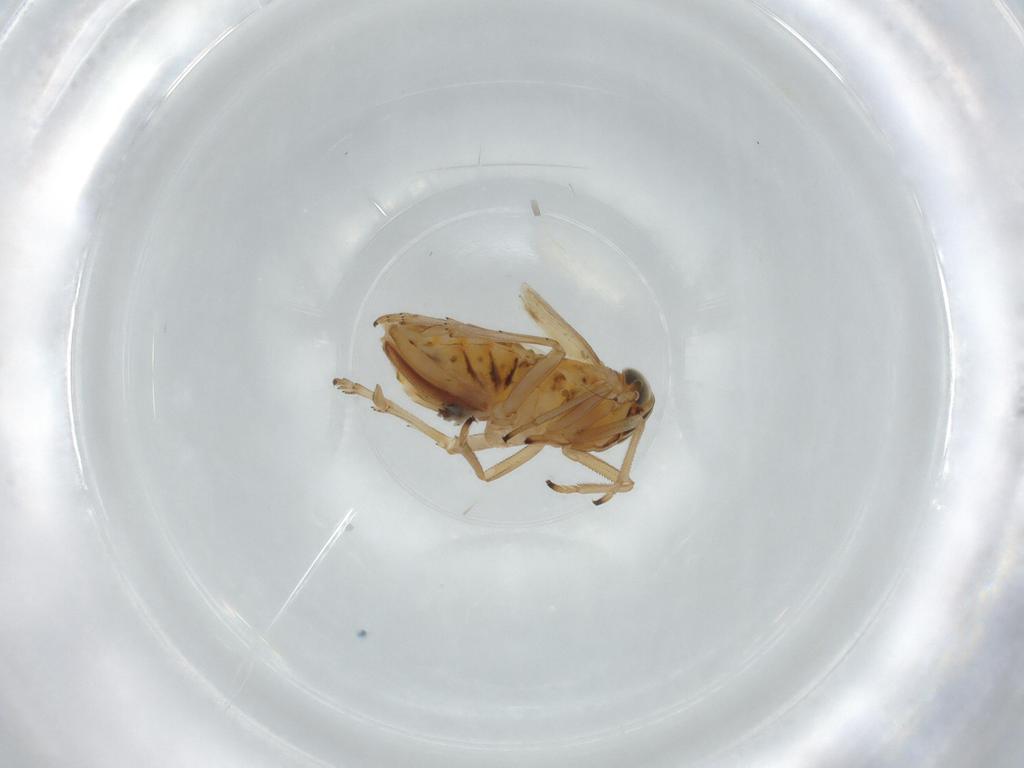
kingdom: Animalia
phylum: Arthropoda
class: Insecta
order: Hemiptera
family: Delphacidae
